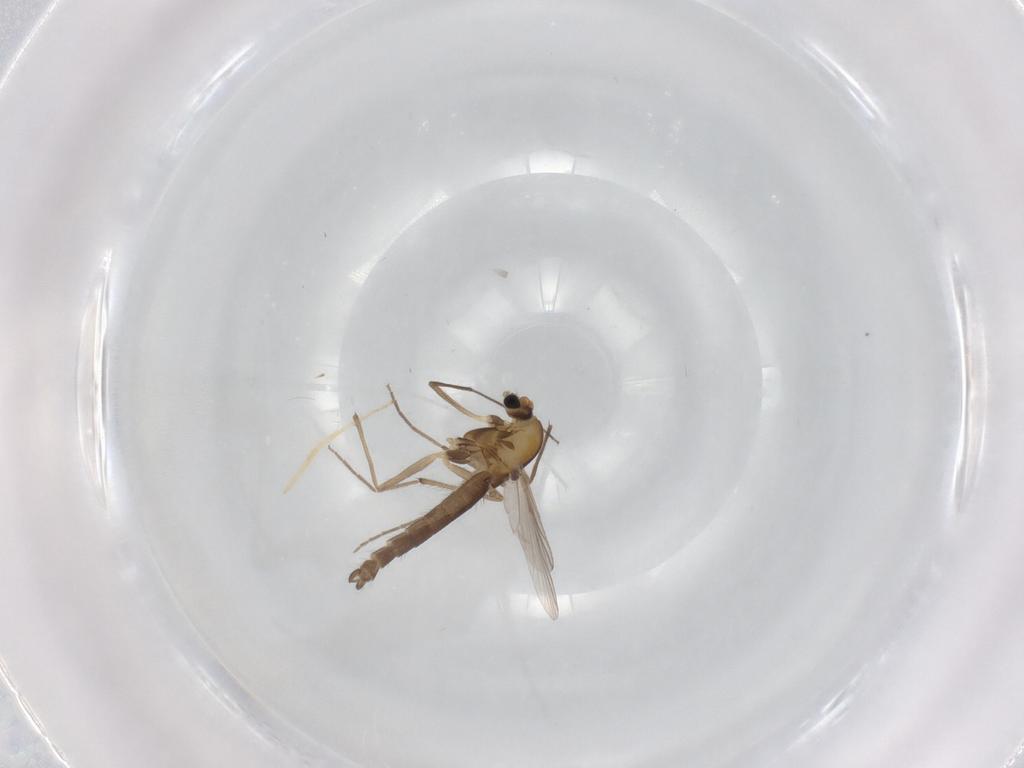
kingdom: Animalia
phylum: Arthropoda
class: Insecta
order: Diptera
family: Chironomidae
